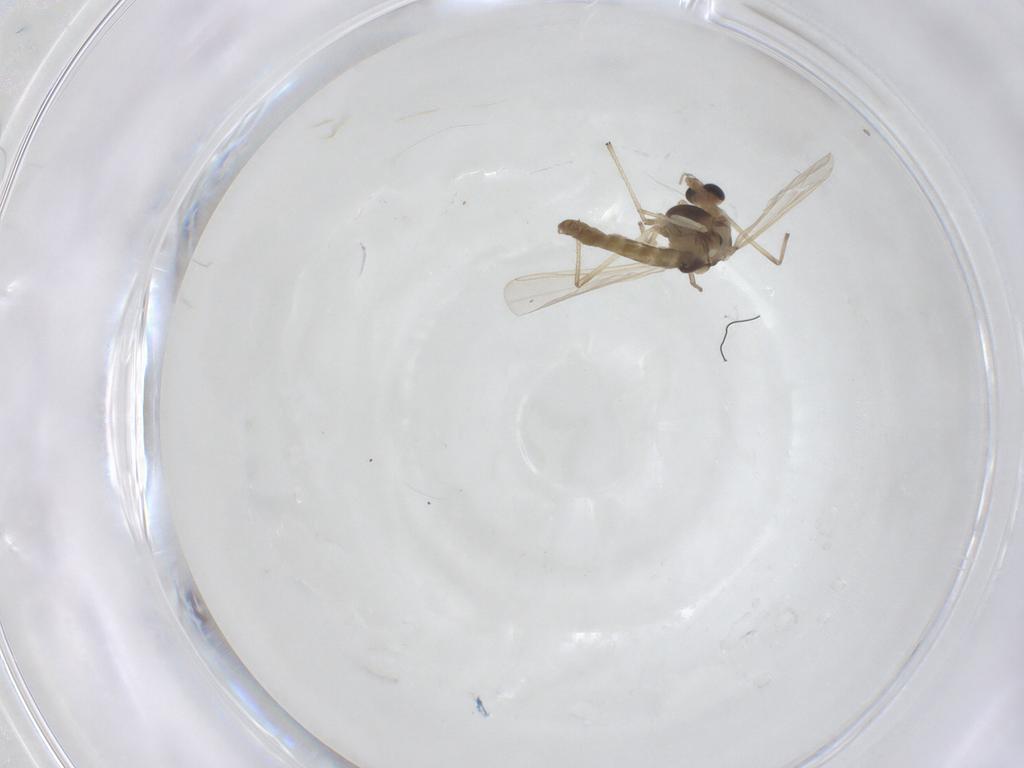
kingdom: Animalia
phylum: Arthropoda
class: Insecta
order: Diptera
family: Chironomidae
